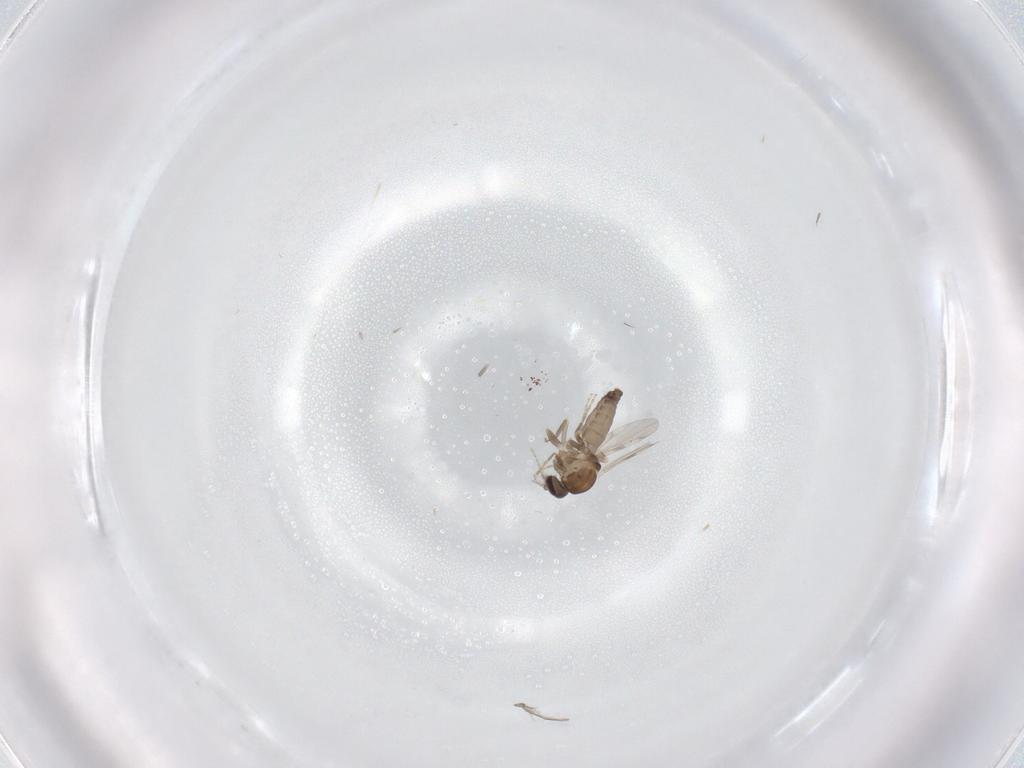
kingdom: Animalia
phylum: Arthropoda
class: Insecta
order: Diptera
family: Ceratopogonidae
